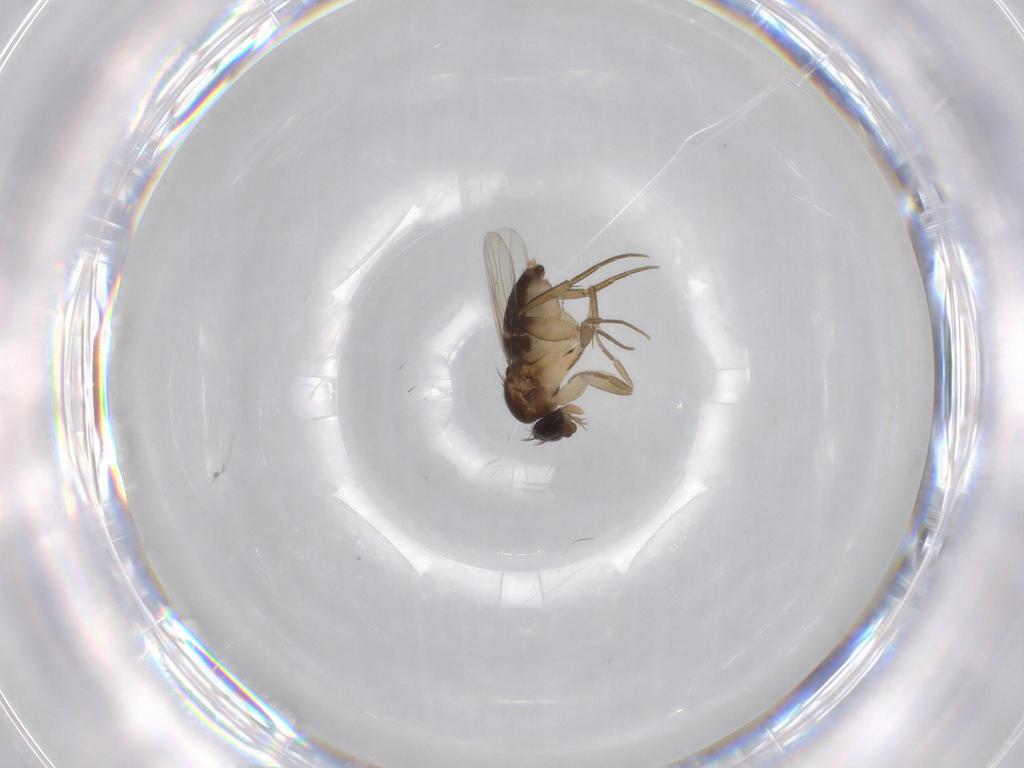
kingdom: Animalia
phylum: Arthropoda
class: Insecta
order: Diptera
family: Phoridae
